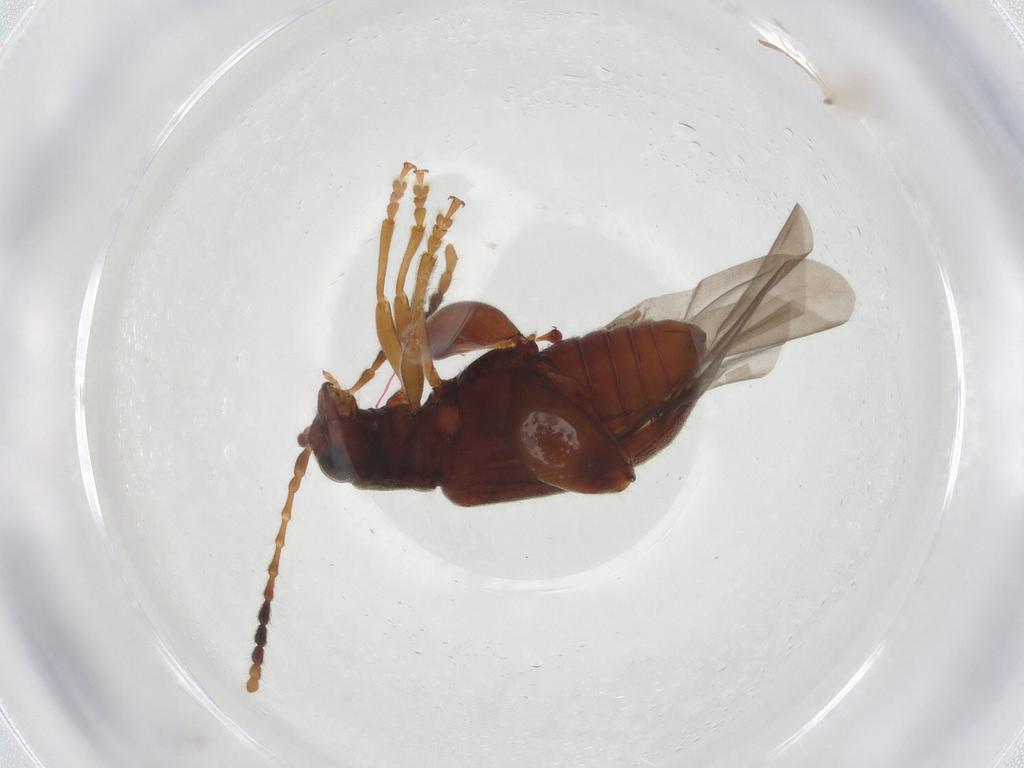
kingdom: Animalia
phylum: Arthropoda
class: Insecta
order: Coleoptera
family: Chrysomelidae
